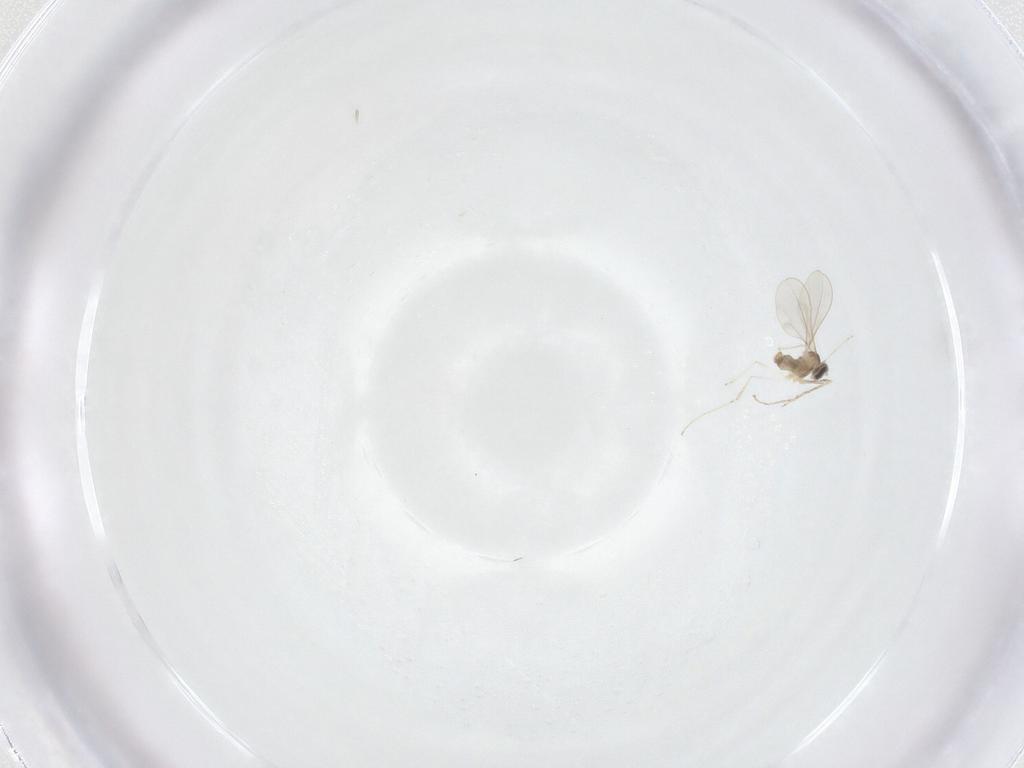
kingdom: Animalia
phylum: Arthropoda
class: Insecta
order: Diptera
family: Cecidomyiidae
